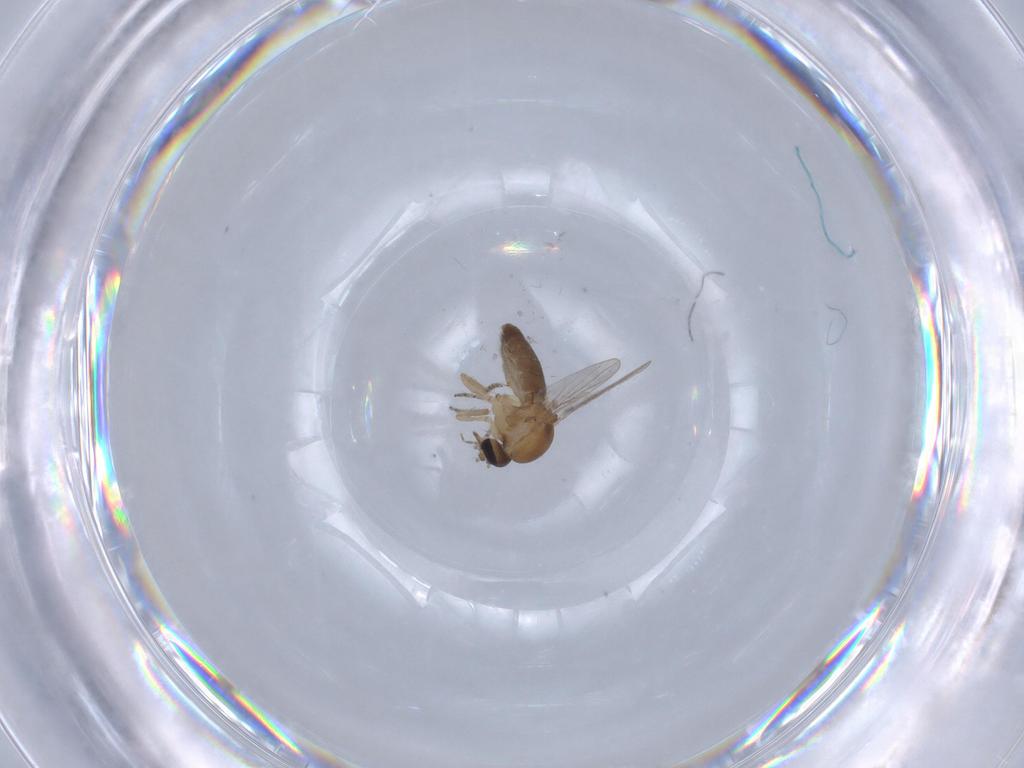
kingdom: Animalia
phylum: Arthropoda
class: Insecta
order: Diptera
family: Ceratopogonidae
